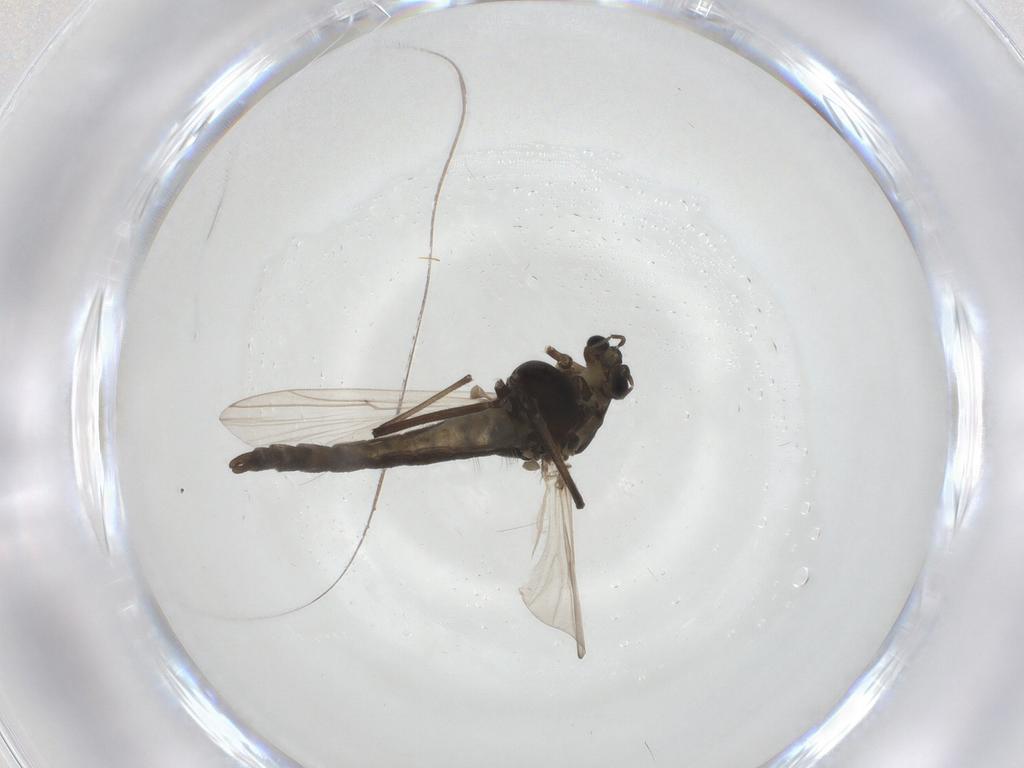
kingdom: Animalia
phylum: Arthropoda
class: Insecta
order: Diptera
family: Chironomidae
